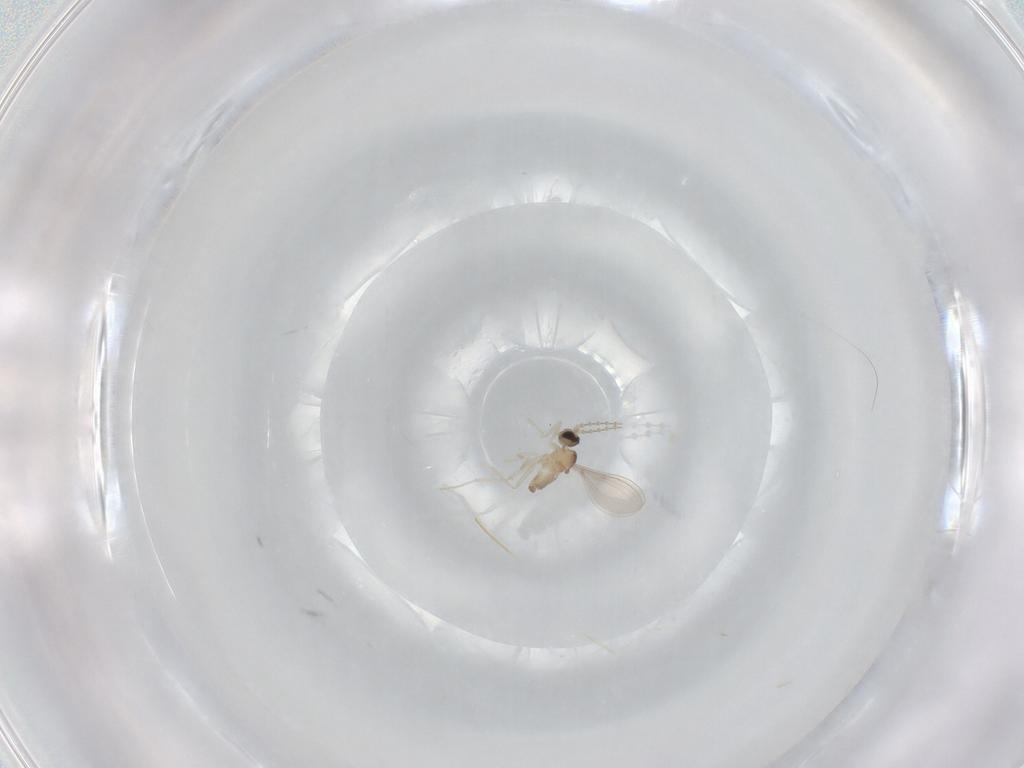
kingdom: Animalia
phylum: Arthropoda
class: Insecta
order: Diptera
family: Cecidomyiidae
